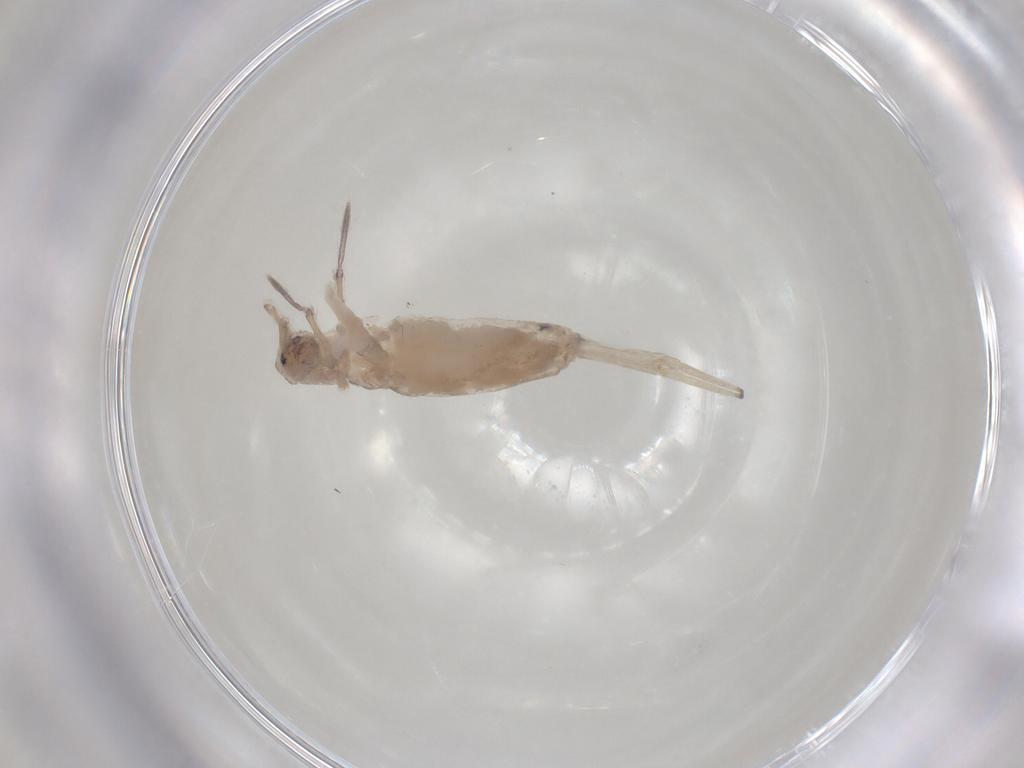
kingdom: Animalia
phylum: Arthropoda
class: Collembola
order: Entomobryomorpha
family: Entomobryidae
